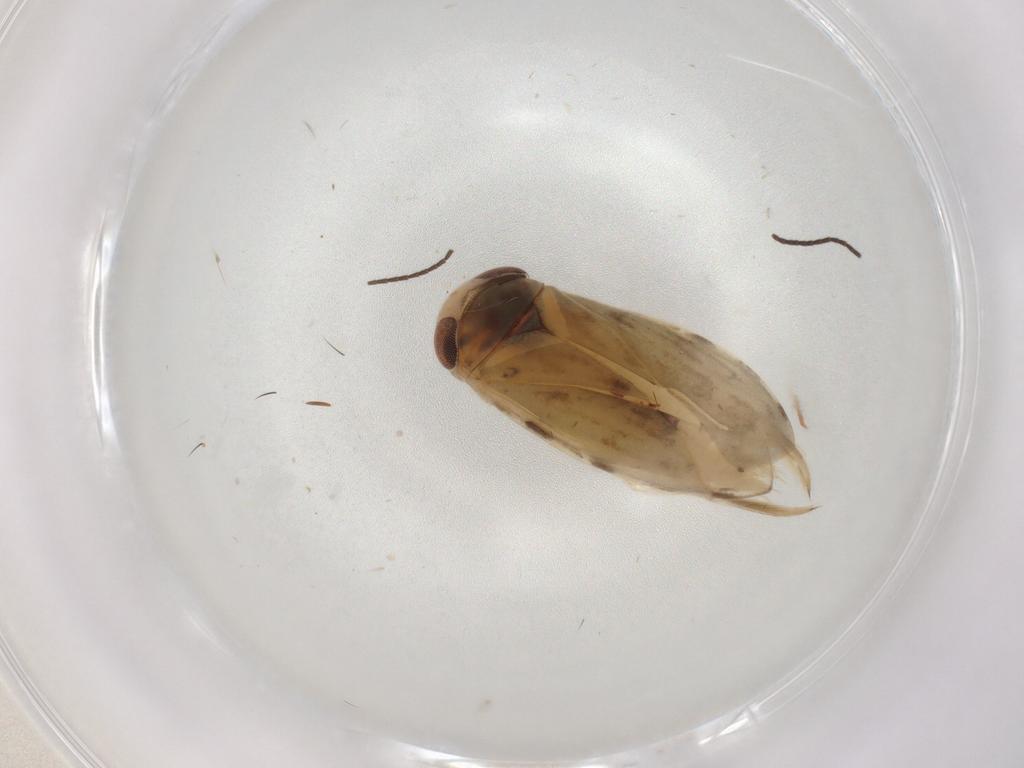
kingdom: Animalia
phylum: Arthropoda
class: Insecta
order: Hemiptera
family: Corixidae
